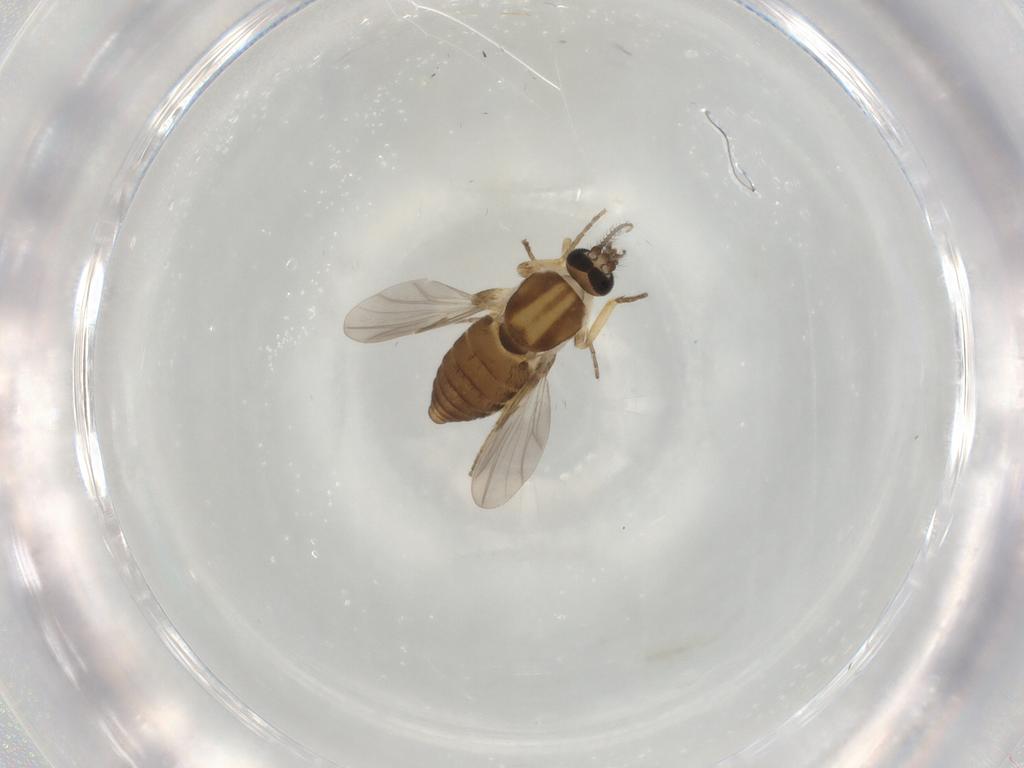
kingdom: Animalia
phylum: Arthropoda
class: Insecta
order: Diptera
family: Ceratopogonidae
